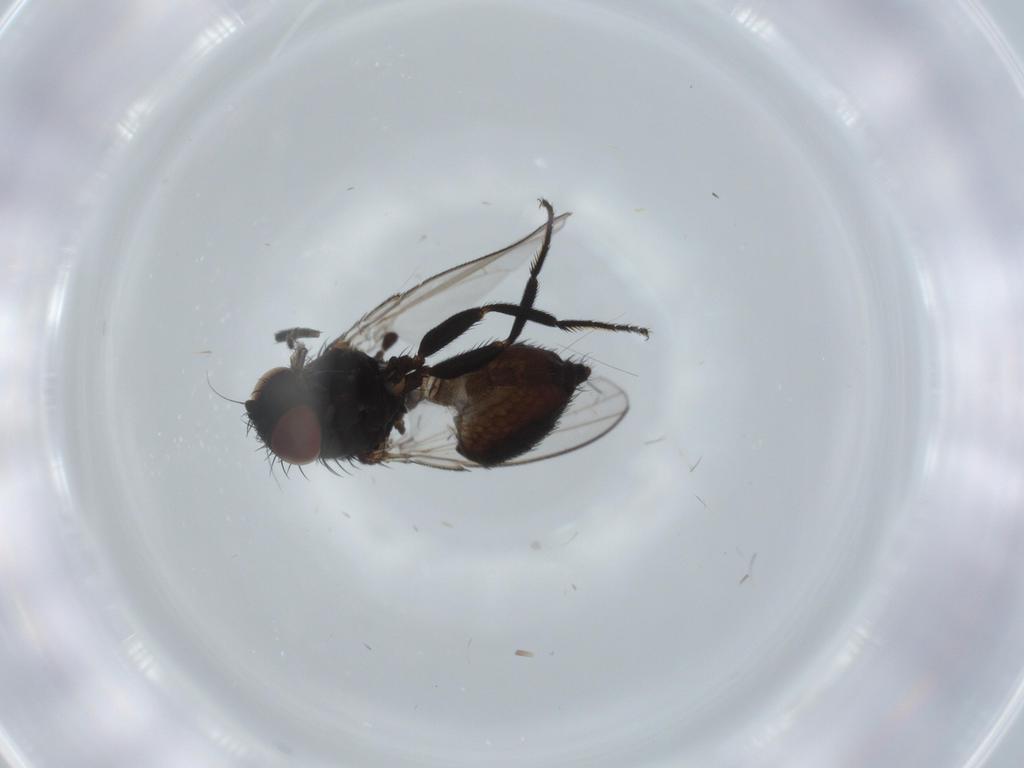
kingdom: Animalia
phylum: Arthropoda
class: Insecta
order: Diptera
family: Milichiidae
